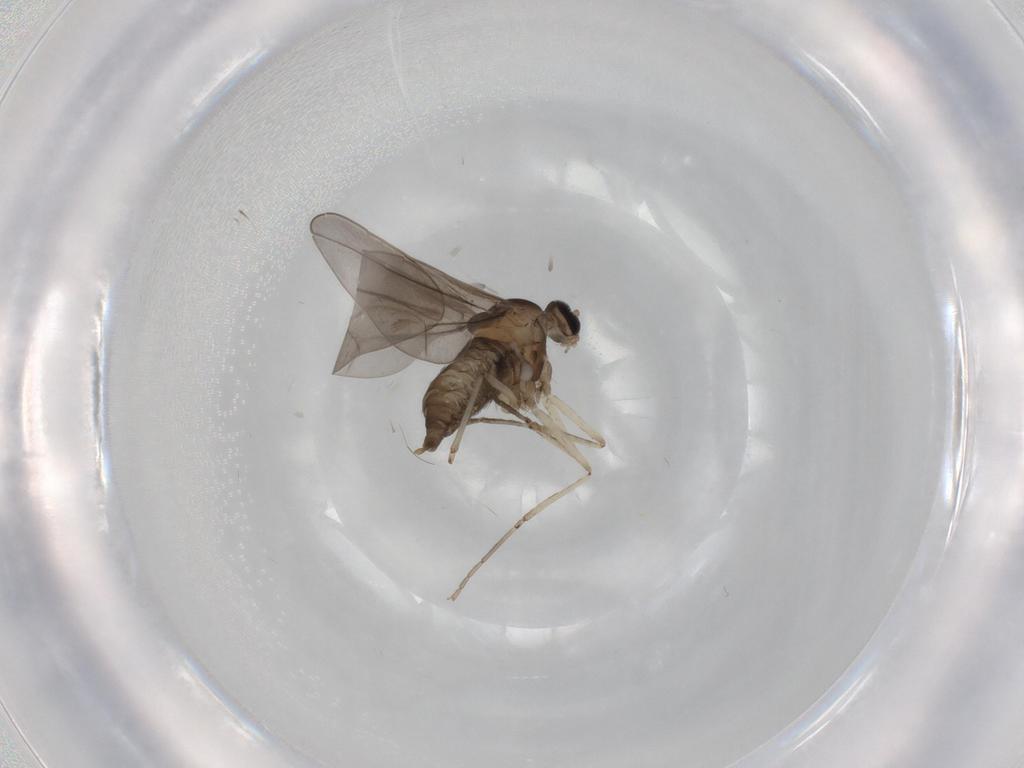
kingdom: Animalia
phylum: Arthropoda
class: Insecta
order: Diptera
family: Cecidomyiidae
